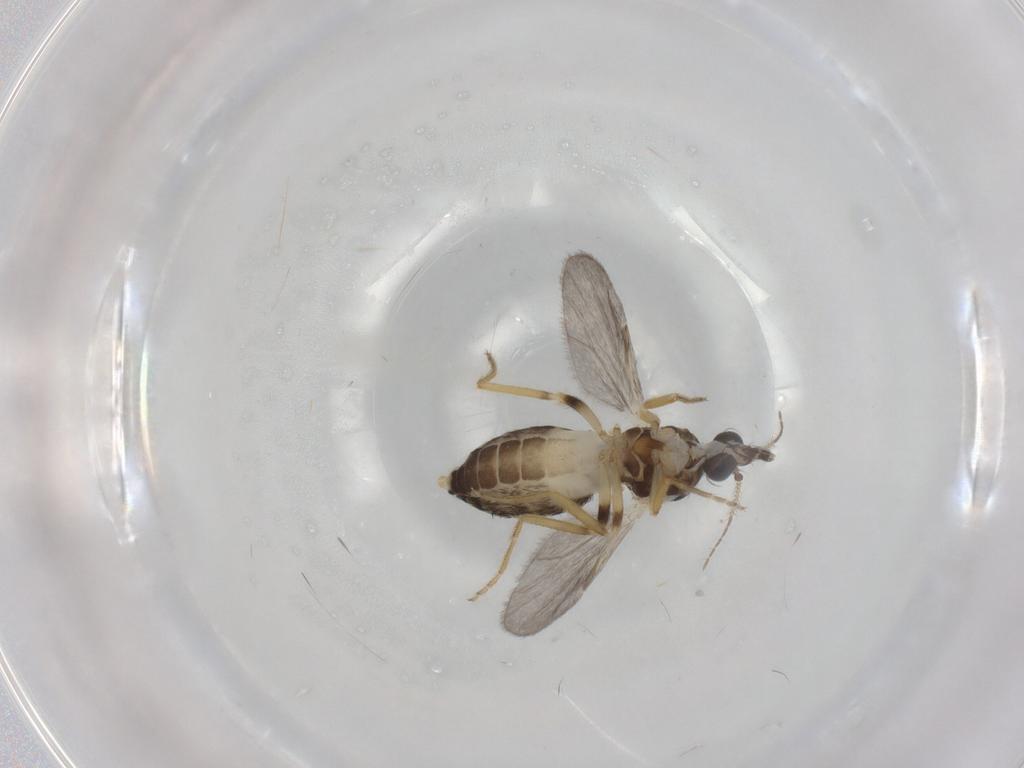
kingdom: Animalia
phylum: Arthropoda
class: Insecta
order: Diptera
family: Ceratopogonidae
